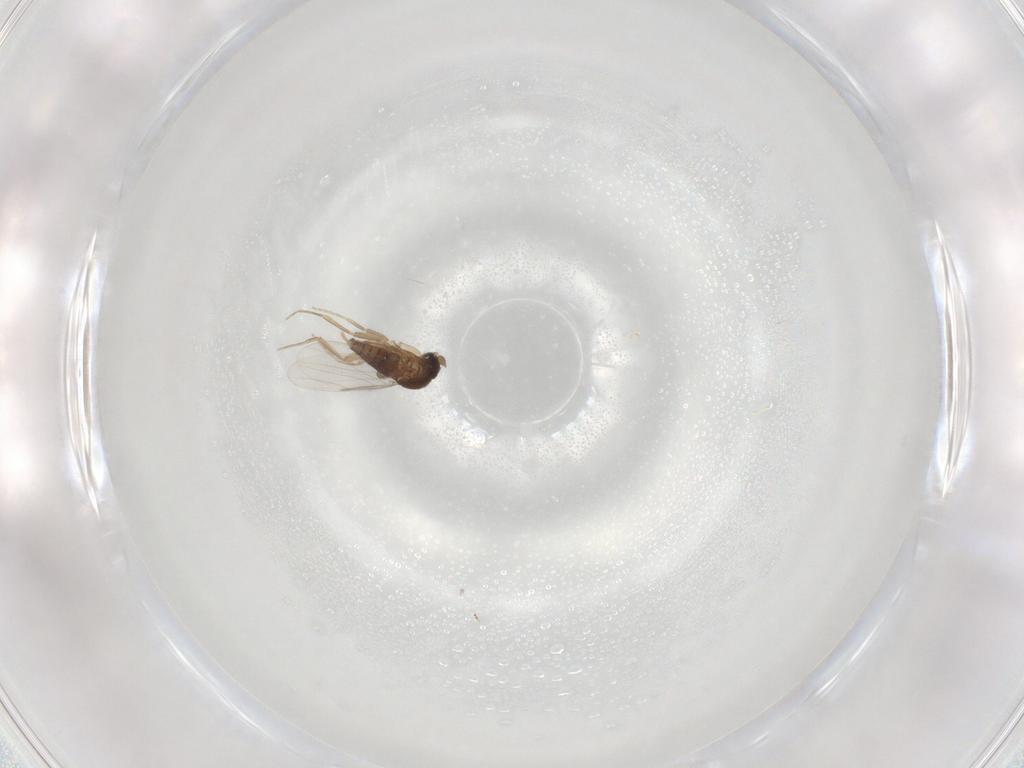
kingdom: Animalia
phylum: Arthropoda
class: Insecta
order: Diptera
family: Phoridae
